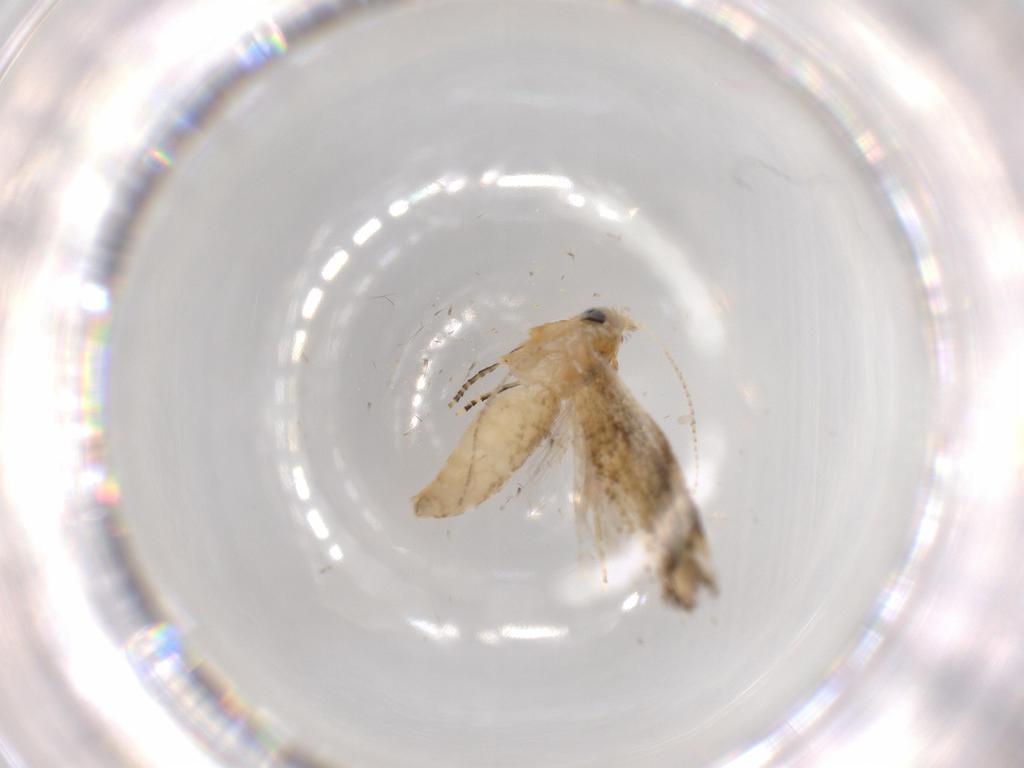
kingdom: Animalia
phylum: Arthropoda
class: Insecta
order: Lepidoptera
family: Bucculatricidae
